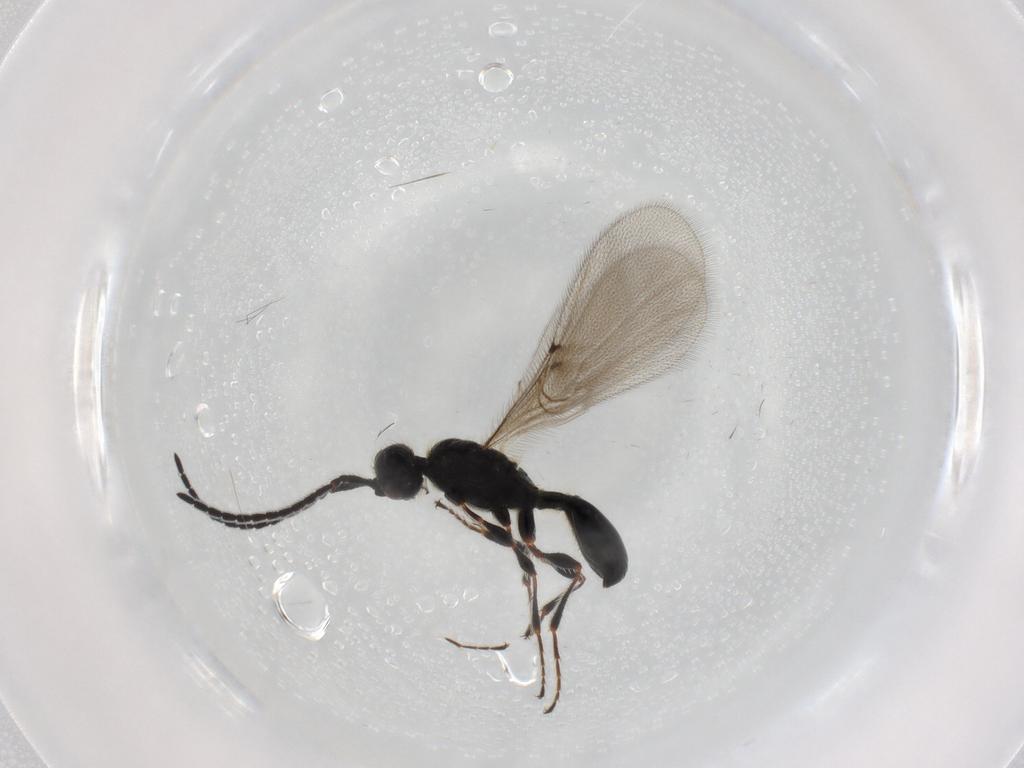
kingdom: Animalia
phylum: Arthropoda
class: Insecta
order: Hymenoptera
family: Diapriidae
